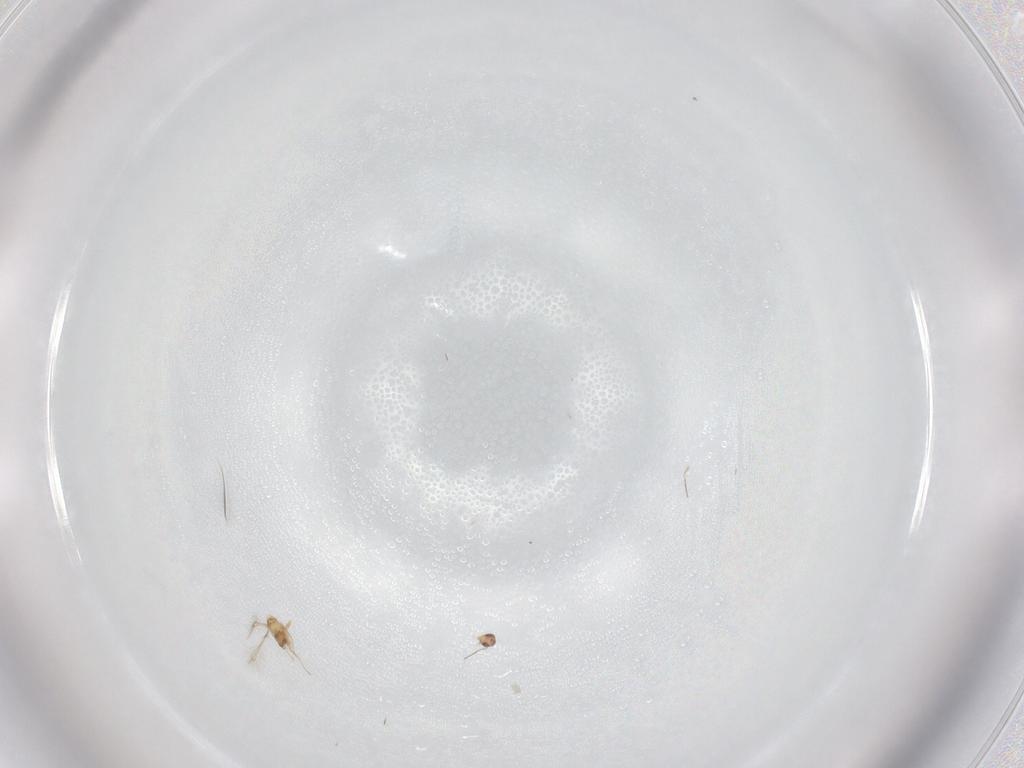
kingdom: Animalia
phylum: Arthropoda
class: Insecta
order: Hymenoptera
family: Mymaridae
